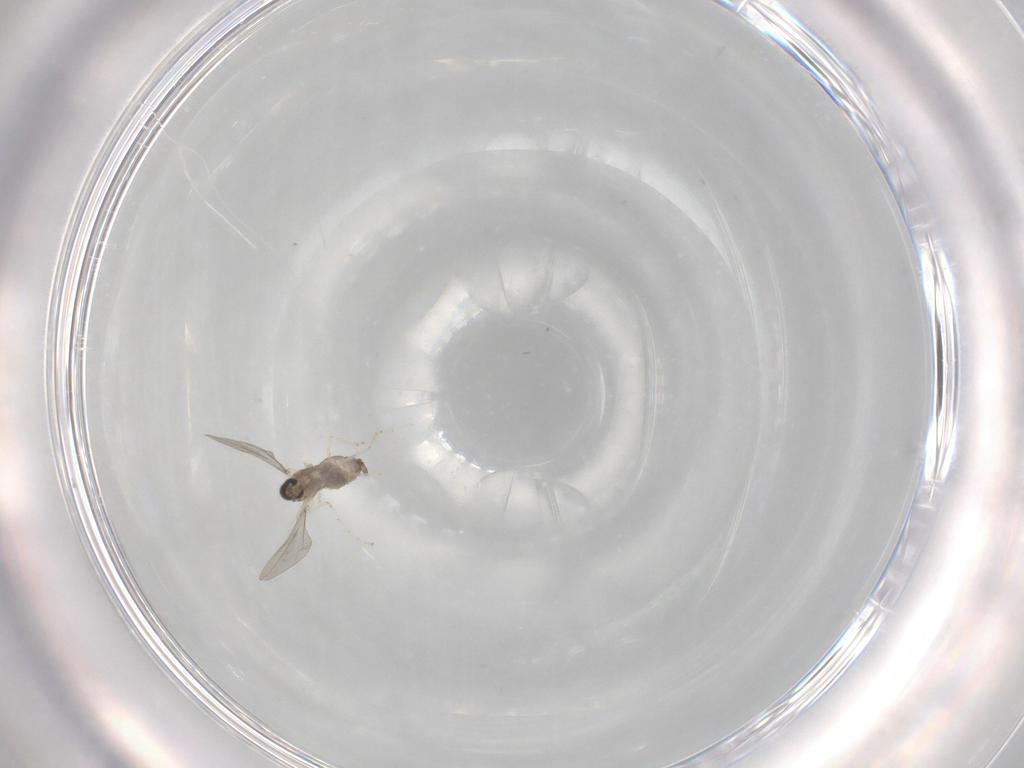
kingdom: Animalia
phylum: Arthropoda
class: Insecta
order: Diptera
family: Cecidomyiidae
